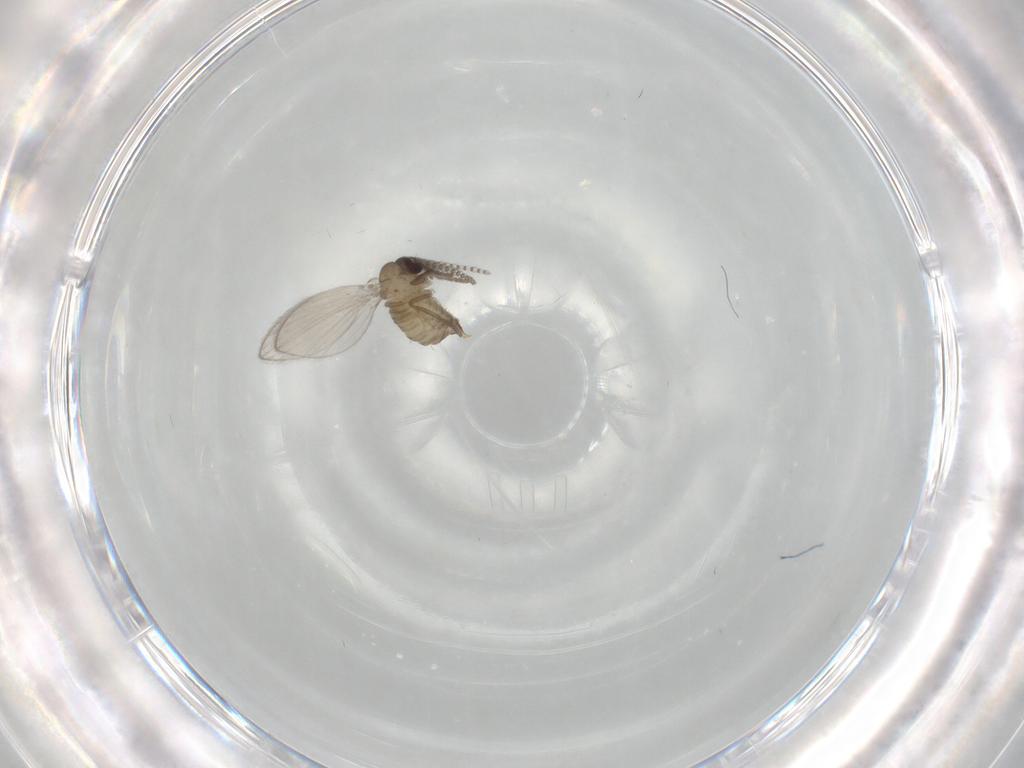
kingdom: Animalia
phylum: Arthropoda
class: Insecta
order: Diptera
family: Psychodidae
